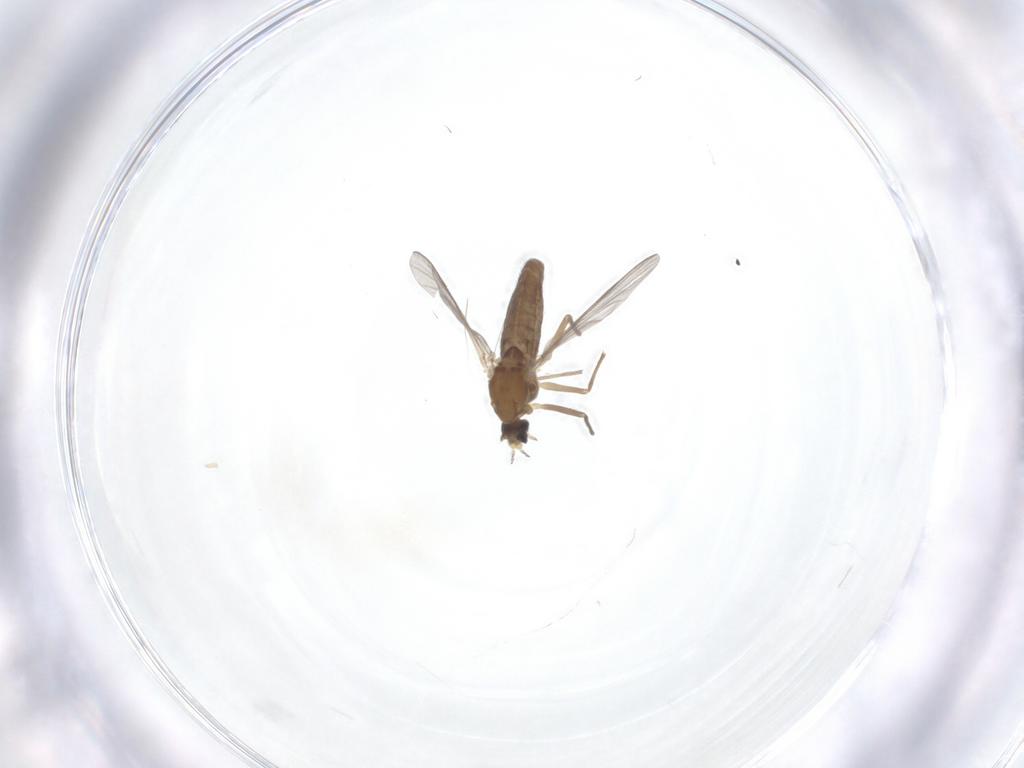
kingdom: Animalia
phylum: Arthropoda
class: Insecta
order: Diptera
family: Chironomidae
